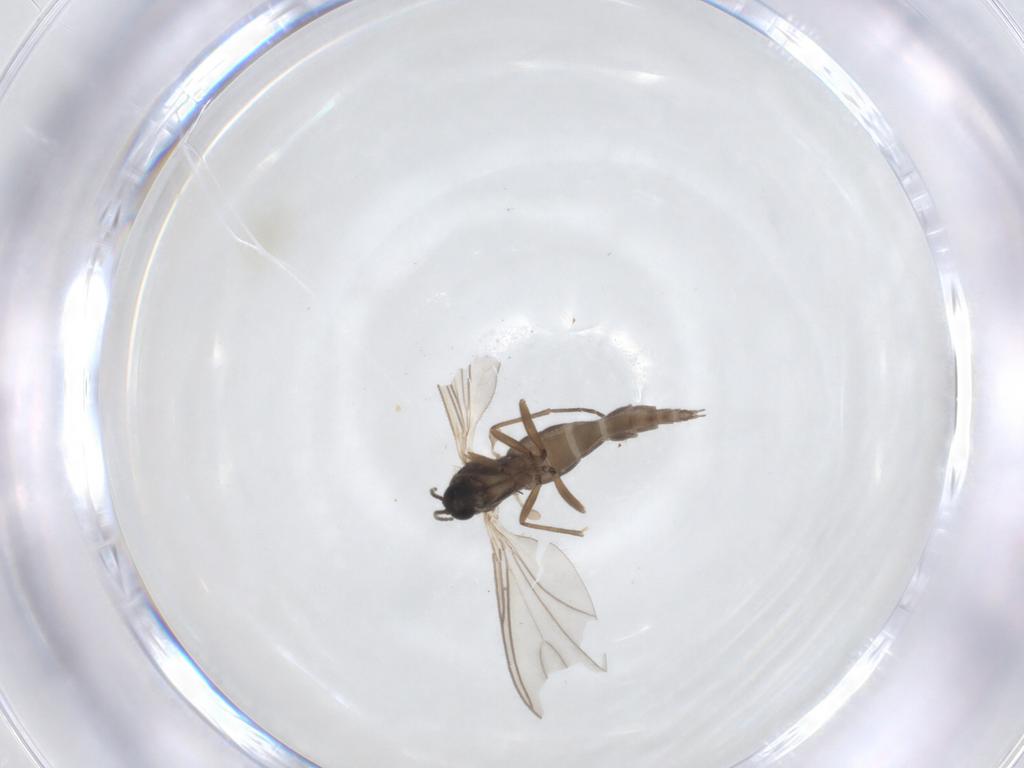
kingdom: Animalia
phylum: Arthropoda
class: Insecta
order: Diptera
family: Sciaridae
